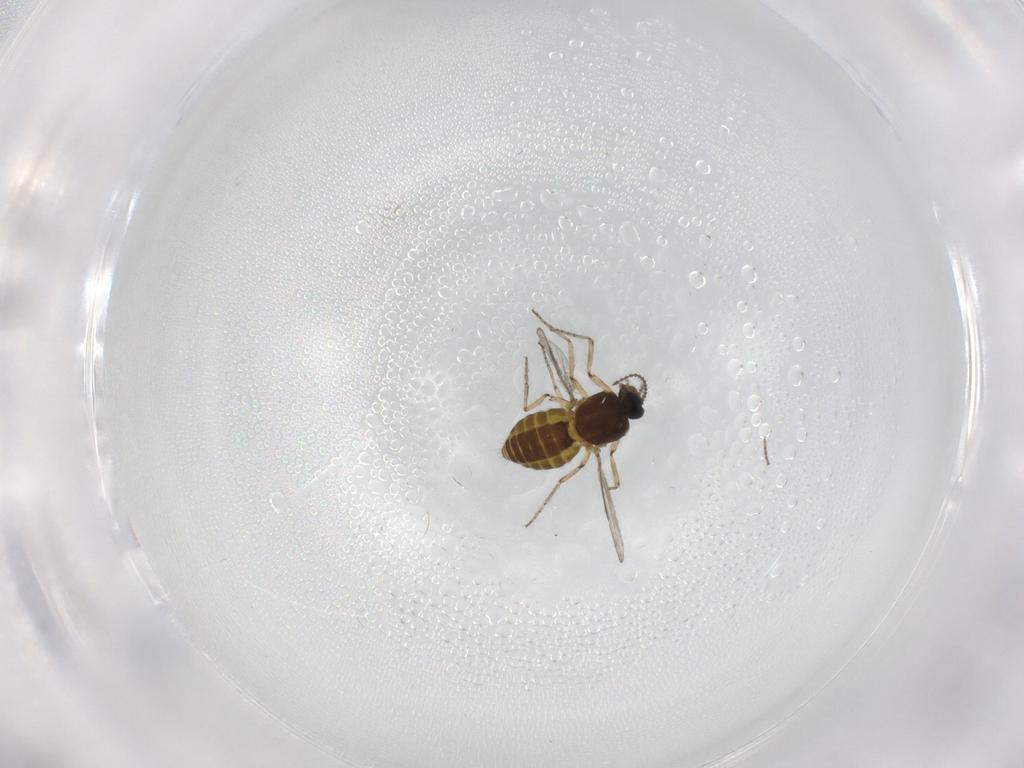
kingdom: Animalia
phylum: Arthropoda
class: Insecta
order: Diptera
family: Ceratopogonidae
